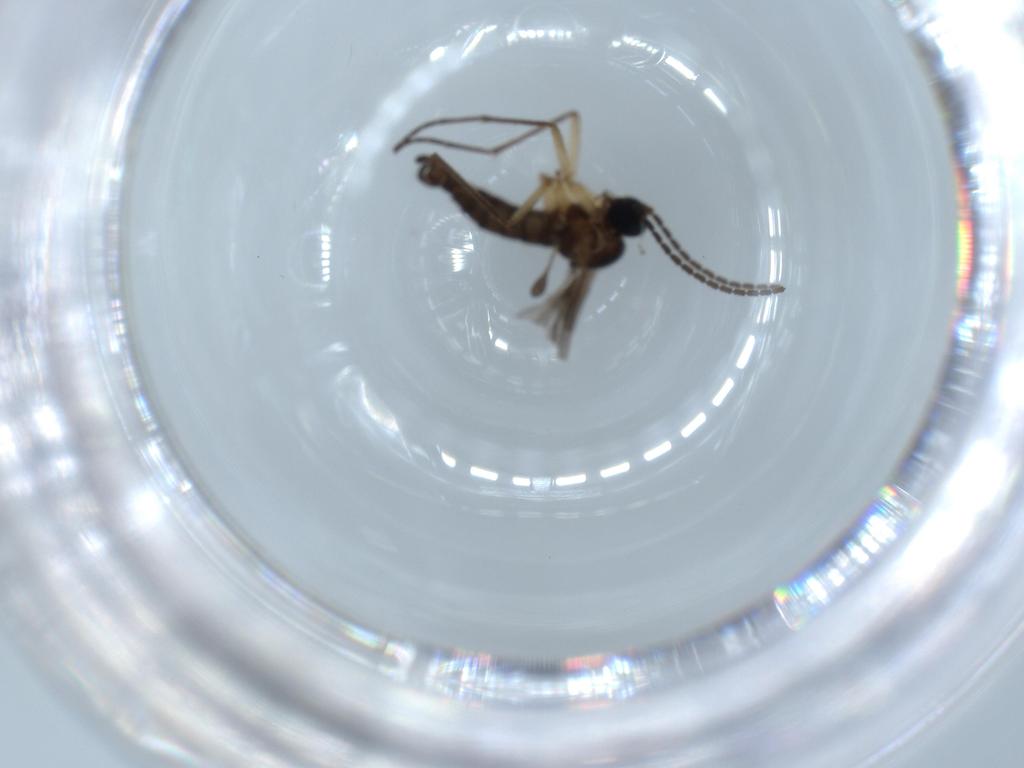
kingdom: Animalia
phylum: Arthropoda
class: Insecta
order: Diptera
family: Sciaridae
